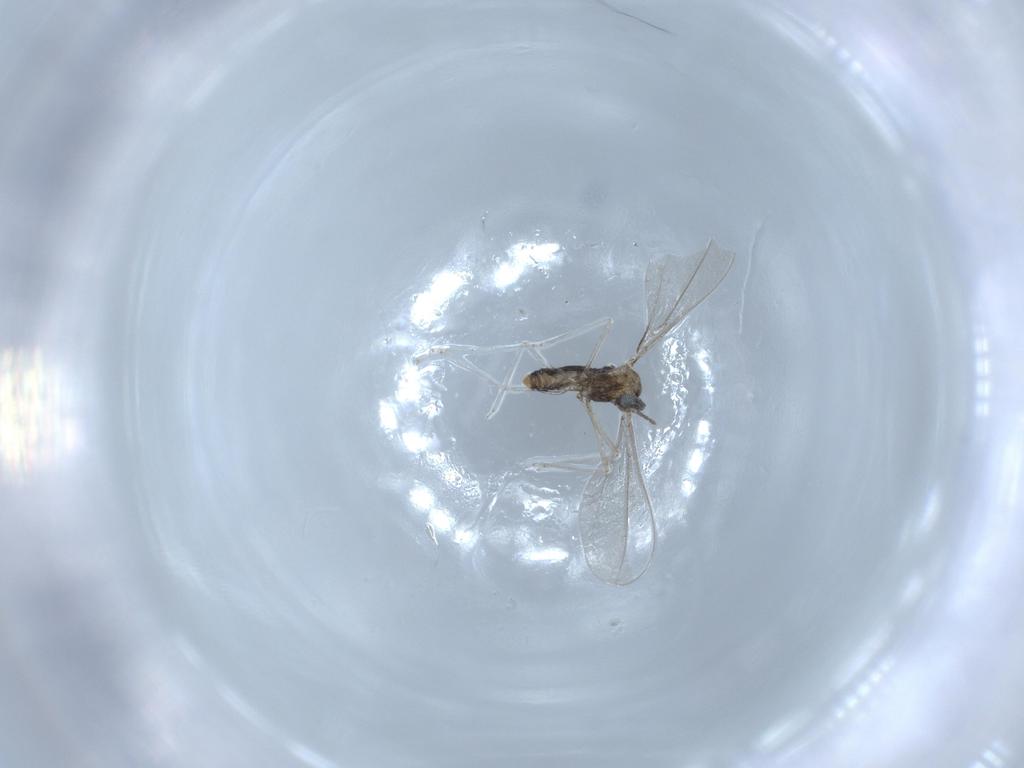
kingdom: Animalia
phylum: Arthropoda
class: Insecta
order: Diptera
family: Cecidomyiidae
